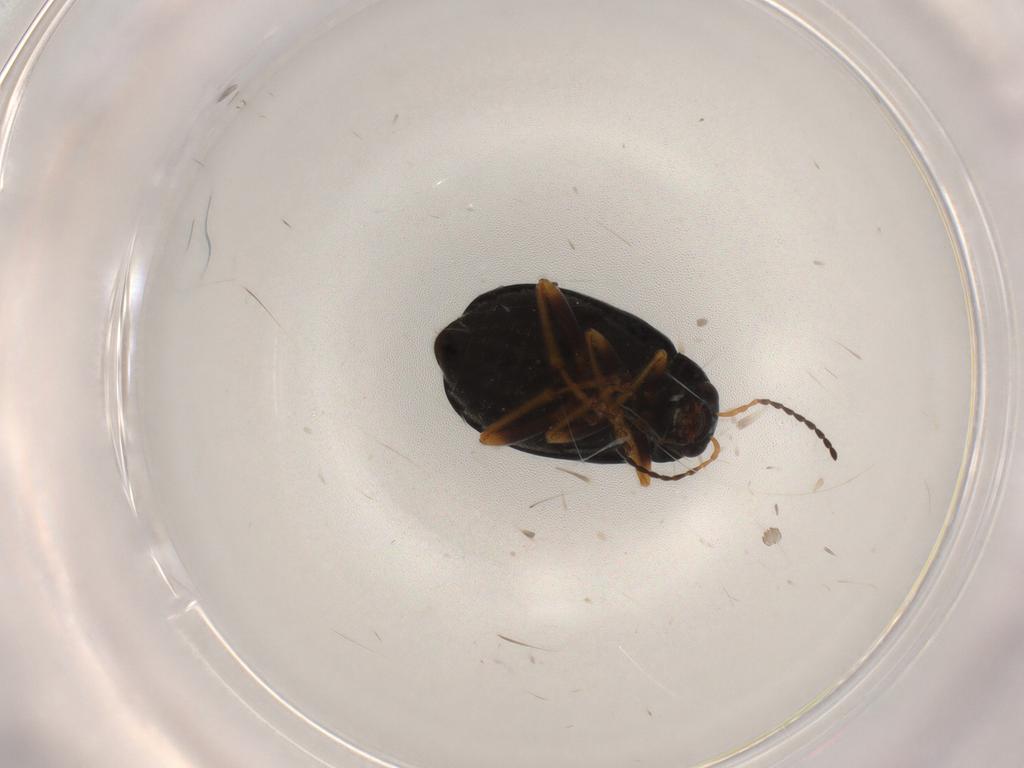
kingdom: Animalia
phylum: Arthropoda
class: Insecta
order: Coleoptera
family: Chrysomelidae
